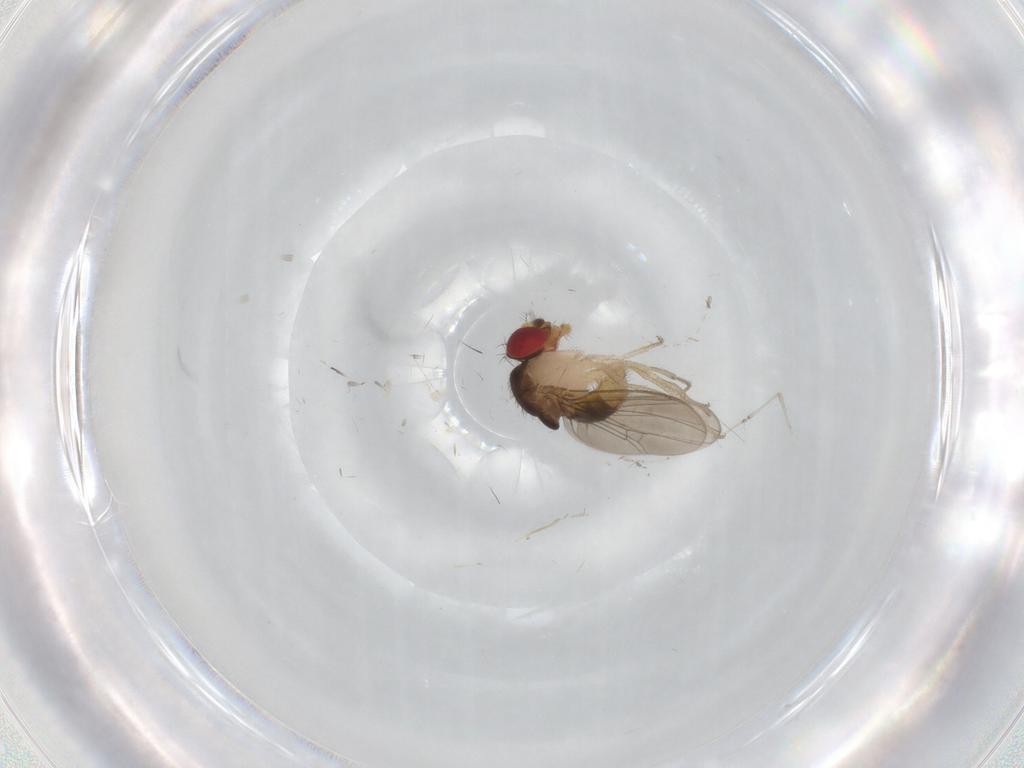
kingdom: Animalia
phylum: Arthropoda
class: Insecta
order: Diptera
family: Drosophilidae
